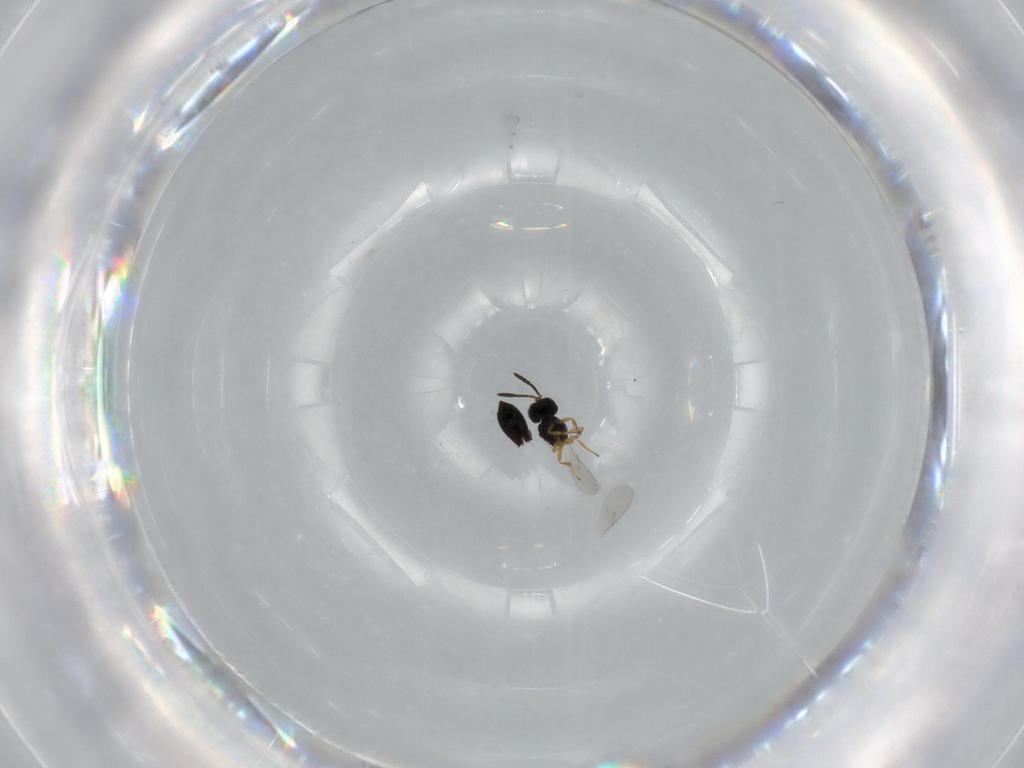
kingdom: Animalia
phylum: Arthropoda
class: Insecta
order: Hymenoptera
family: Scelionidae
